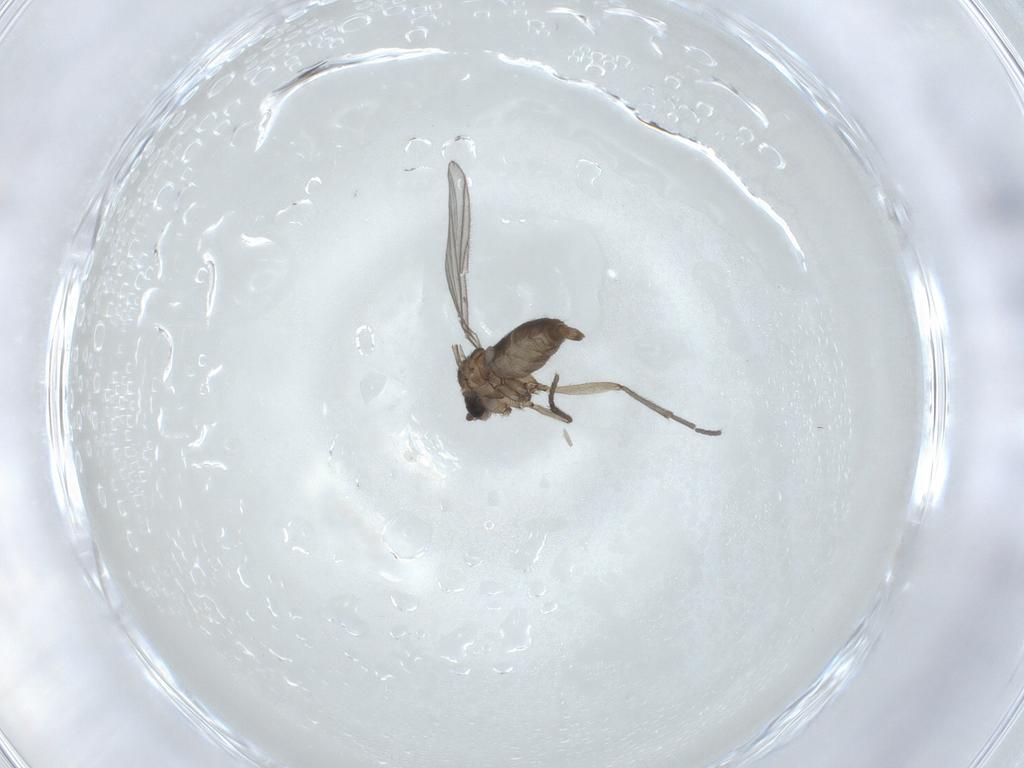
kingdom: Animalia
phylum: Arthropoda
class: Insecta
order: Diptera
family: Sciaridae
